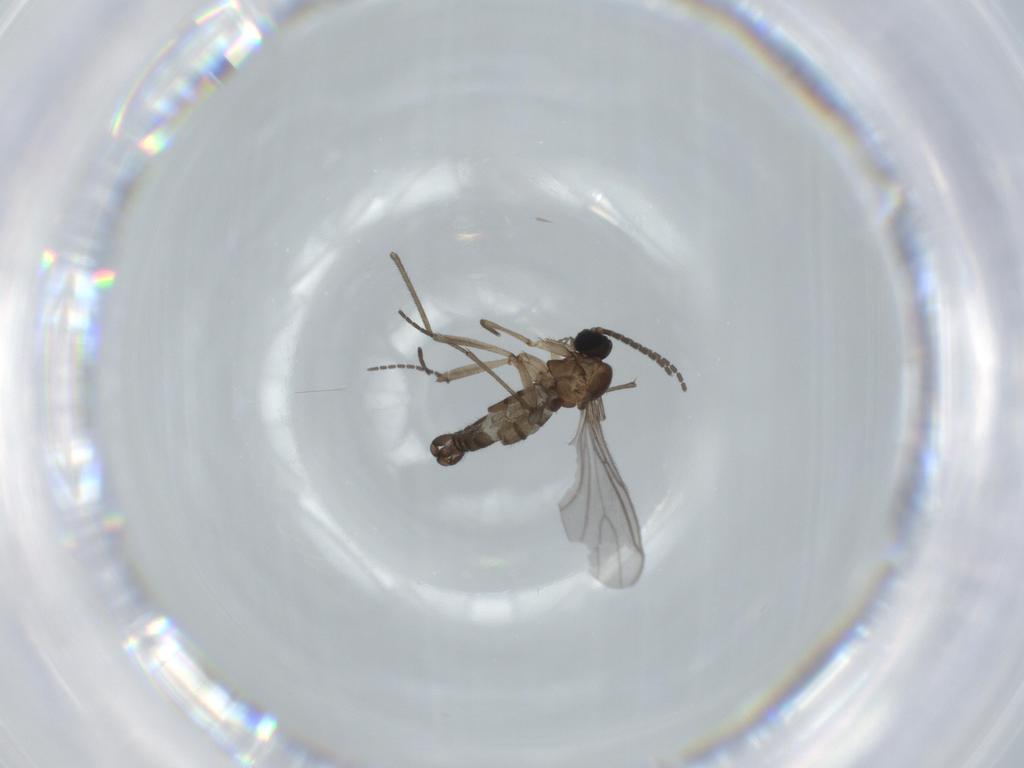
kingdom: Animalia
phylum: Arthropoda
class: Insecta
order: Diptera
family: Sciaridae
